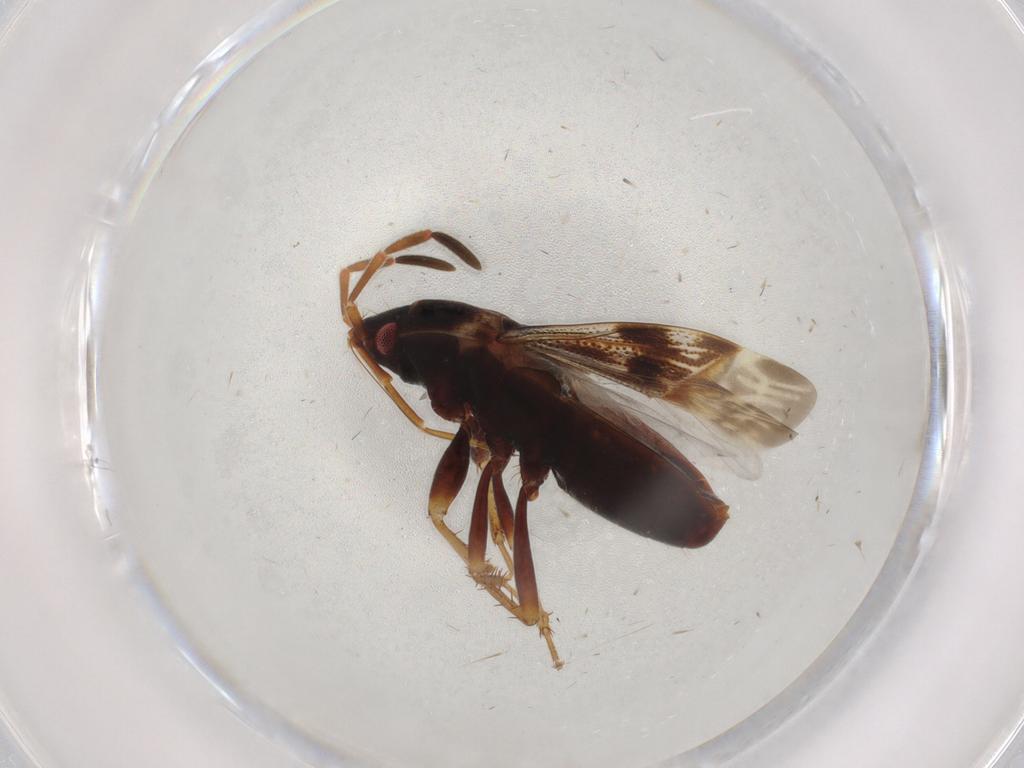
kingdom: Animalia
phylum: Arthropoda
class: Insecta
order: Hemiptera
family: Rhyparochromidae
